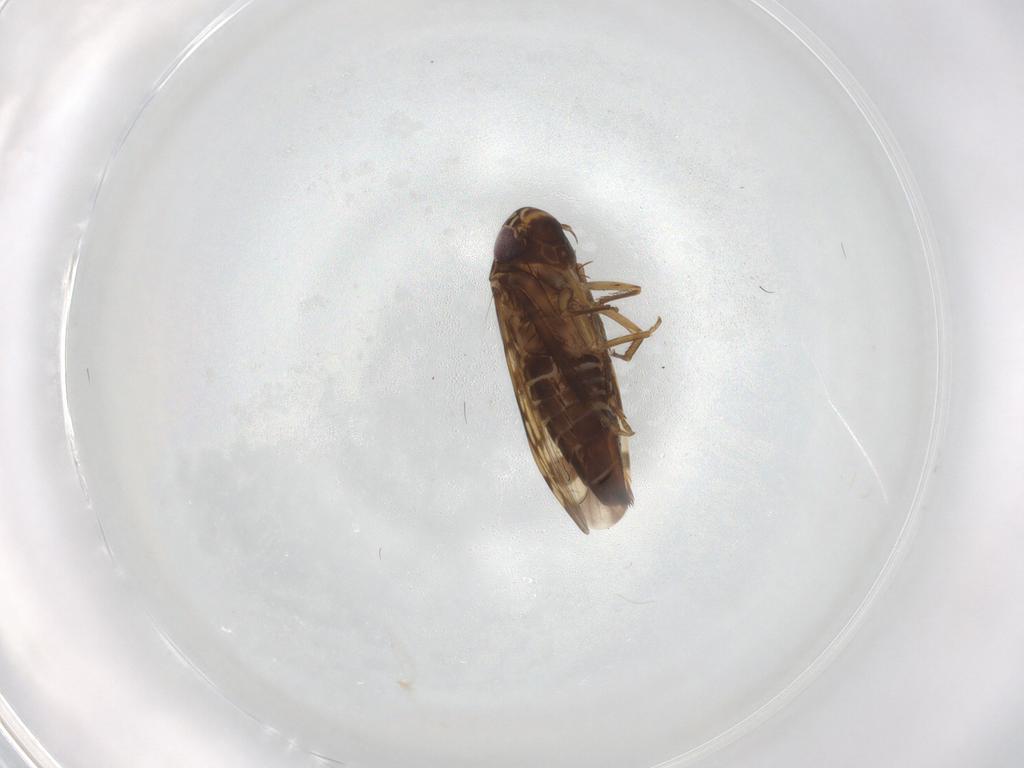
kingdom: Animalia
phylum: Arthropoda
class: Insecta
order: Hemiptera
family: Cicadellidae
